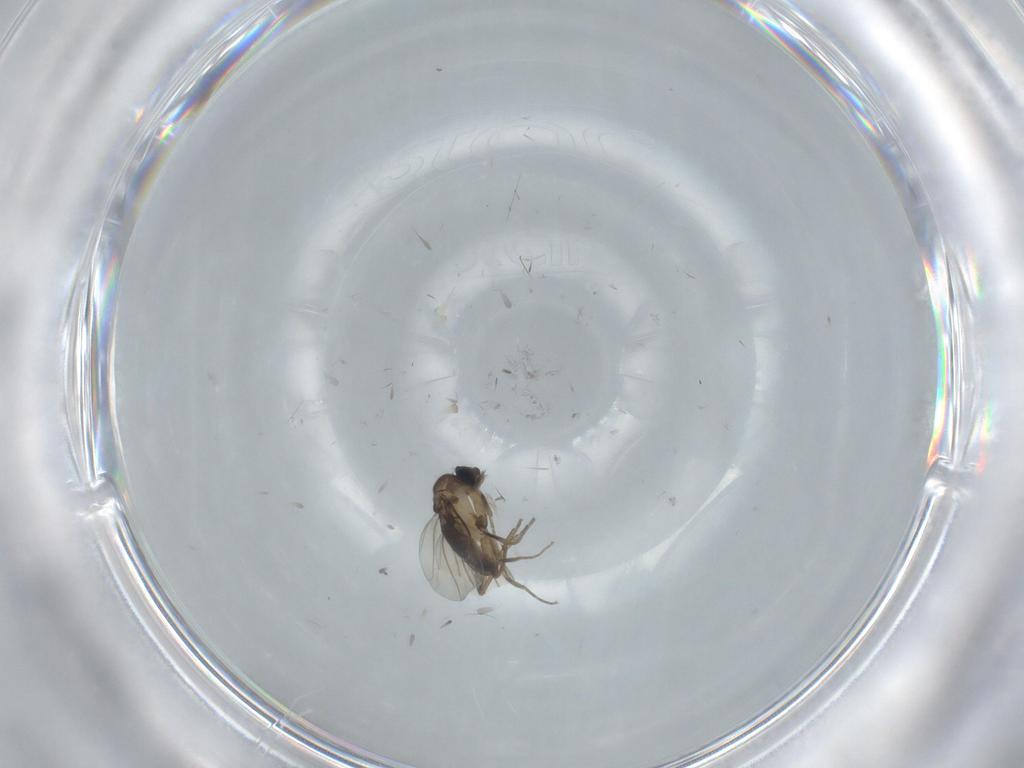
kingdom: Animalia
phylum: Arthropoda
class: Insecta
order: Diptera
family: Phoridae
